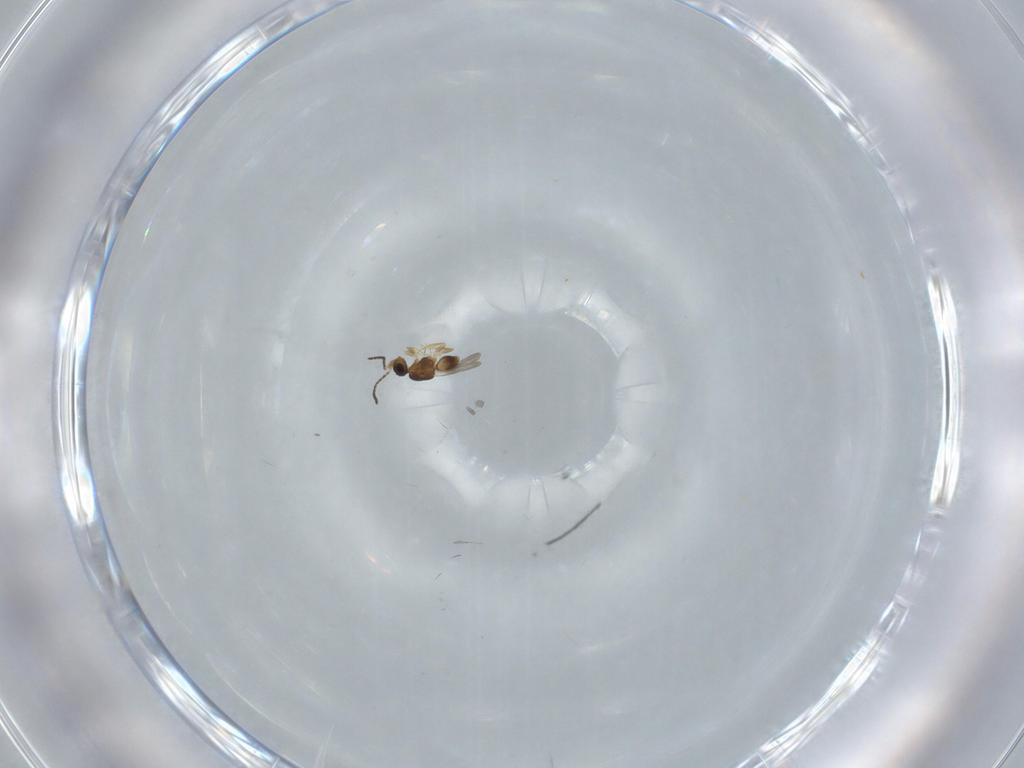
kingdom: Animalia
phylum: Arthropoda
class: Insecta
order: Hymenoptera
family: Ceraphronidae
